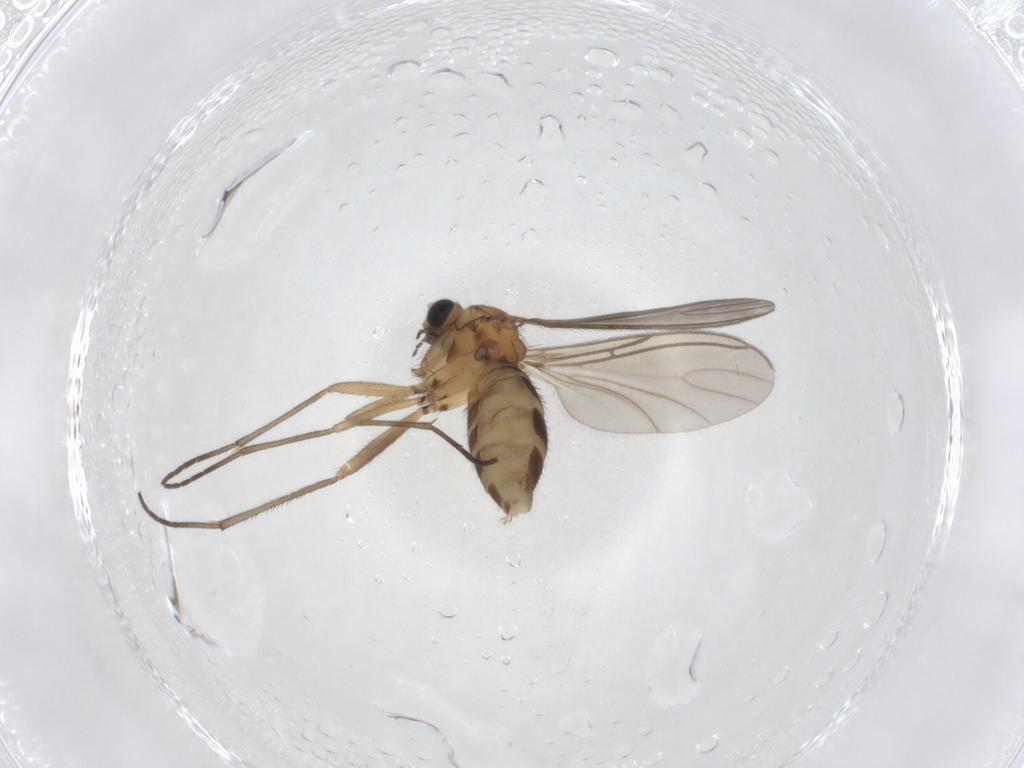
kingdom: Animalia
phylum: Arthropoda
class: Insecta
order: Diptera
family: Sciaridae
